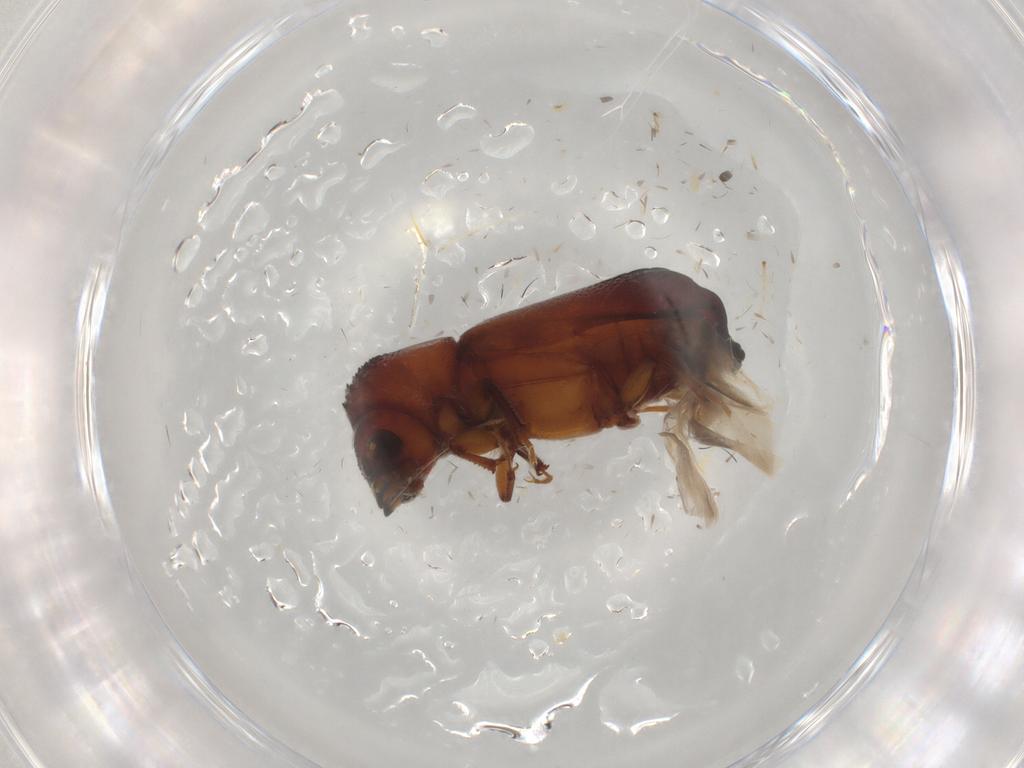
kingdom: Animalia
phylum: Arthropoda
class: Insecta
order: Coleoptera
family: Bostrichidae
